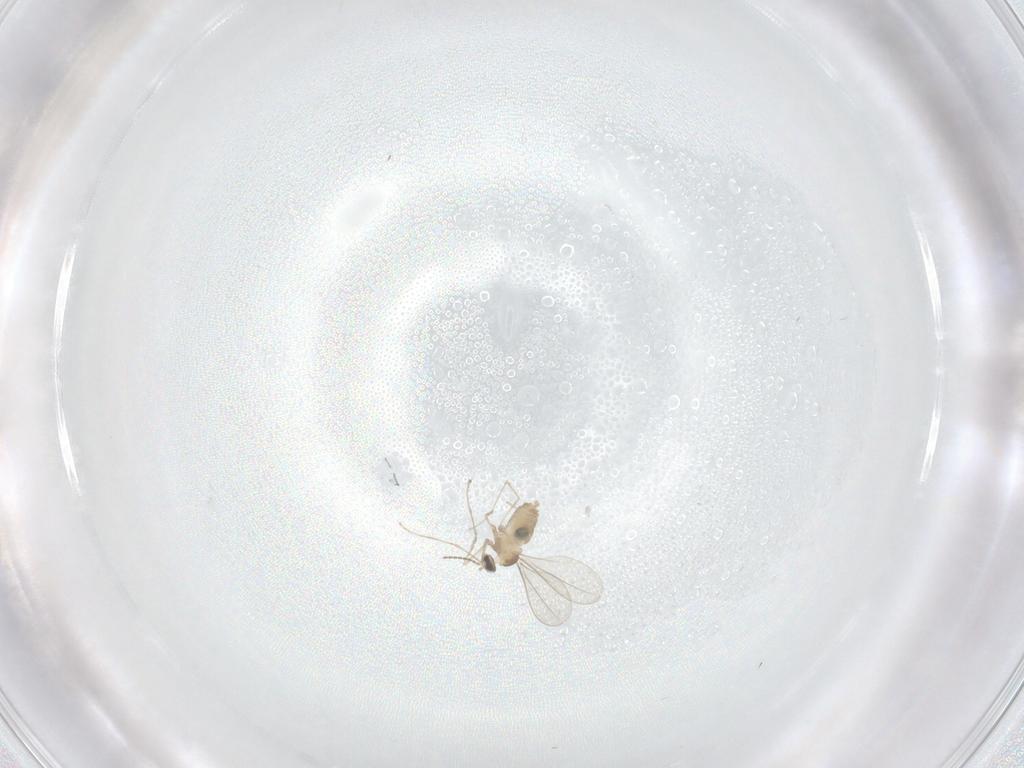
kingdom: Animalia
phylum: Arthropoda
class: Insecta
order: Diptera
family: Cecidomyiidae
